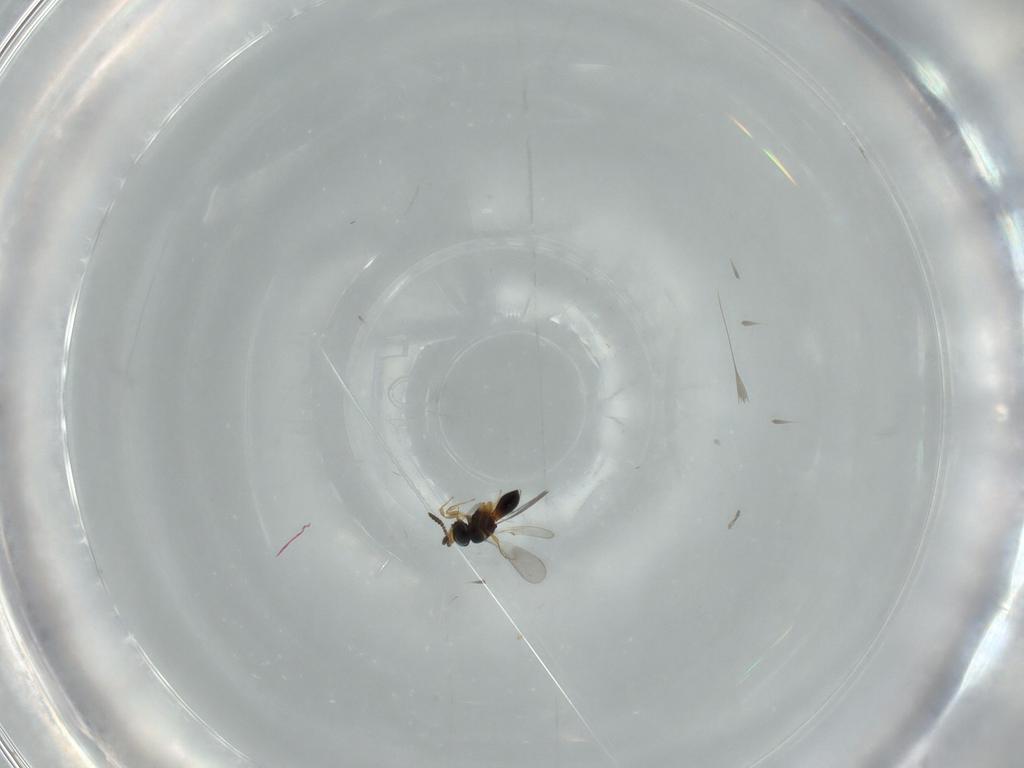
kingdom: Animalia
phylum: Arthropoda
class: Insecta
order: Hymenoptera
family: Scelionidae
